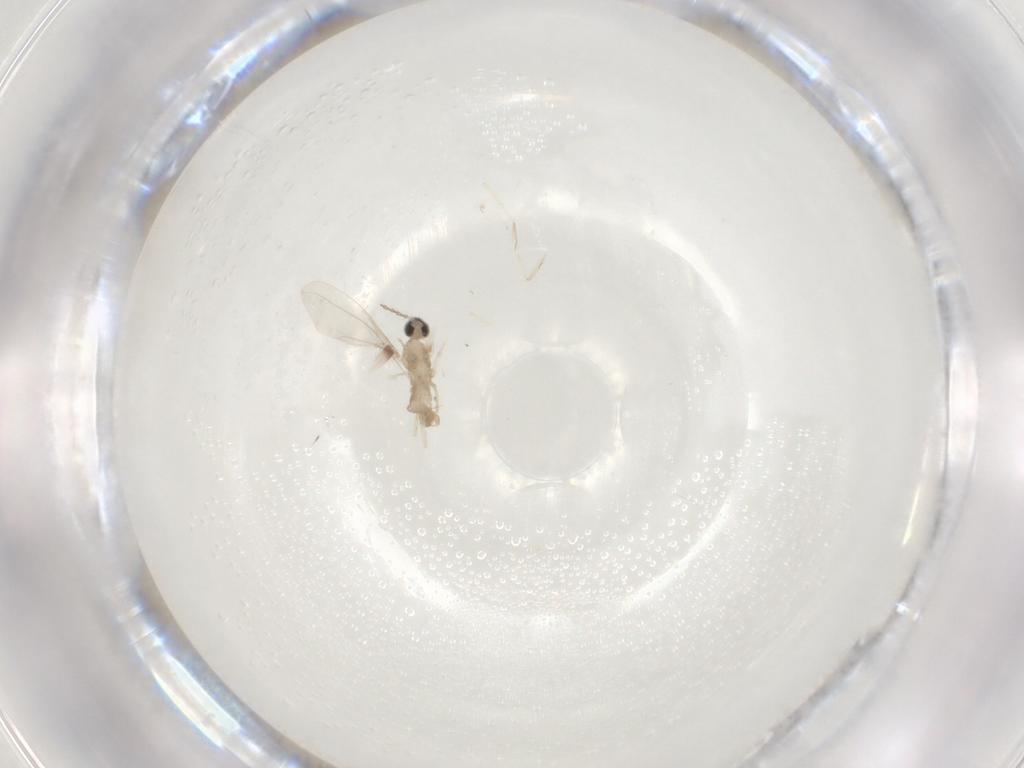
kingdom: Animalia
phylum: Arthropoda
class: Insecta
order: Diptera
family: Cecidomyiidae
